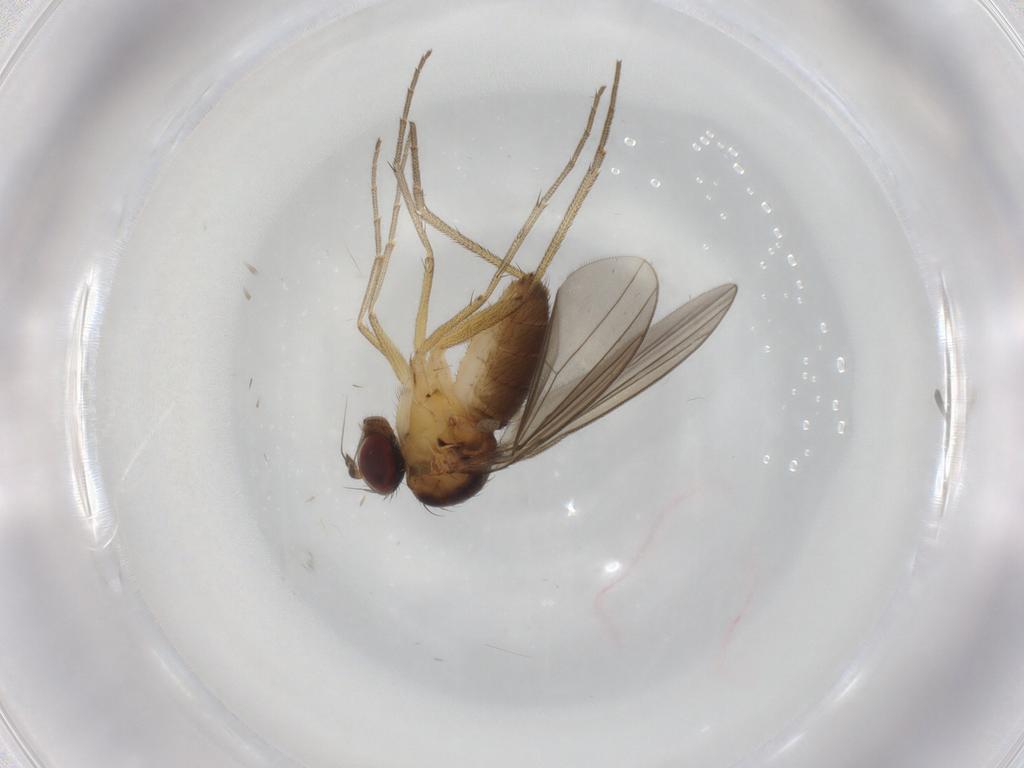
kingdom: Animalia
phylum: Arthropoda
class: Insecta
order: Diptera
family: Dolichopodidae
